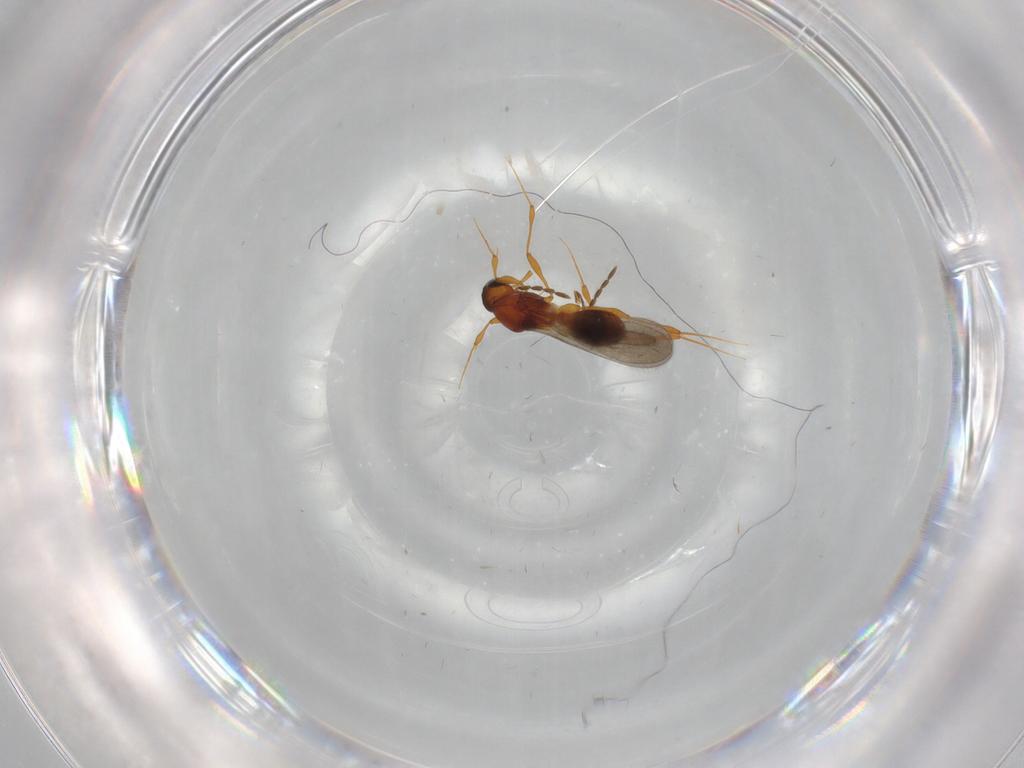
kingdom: Animalia
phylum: Arthropoda
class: Insecta
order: Hymenoptera
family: Platygastridae
